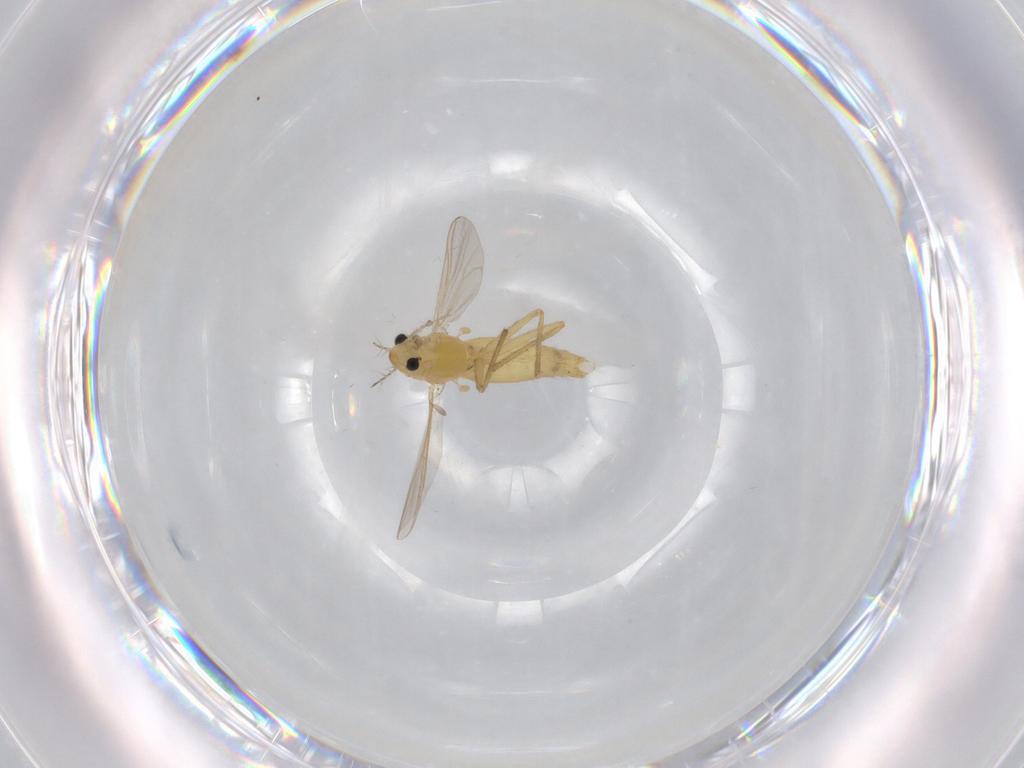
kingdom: Animalia
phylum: Arthropoda
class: Insecta
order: Diptera
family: Chironomidae
